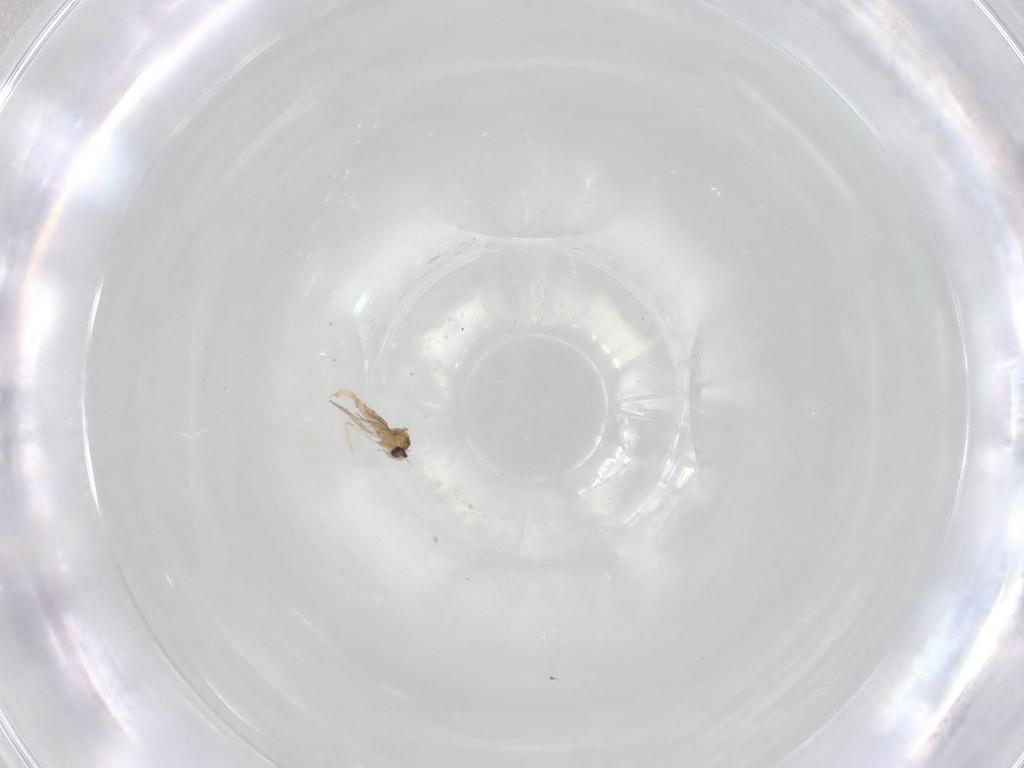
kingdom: Animalia
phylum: Arthropoda
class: Insecta
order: Diptera
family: Cecidomyiidae
